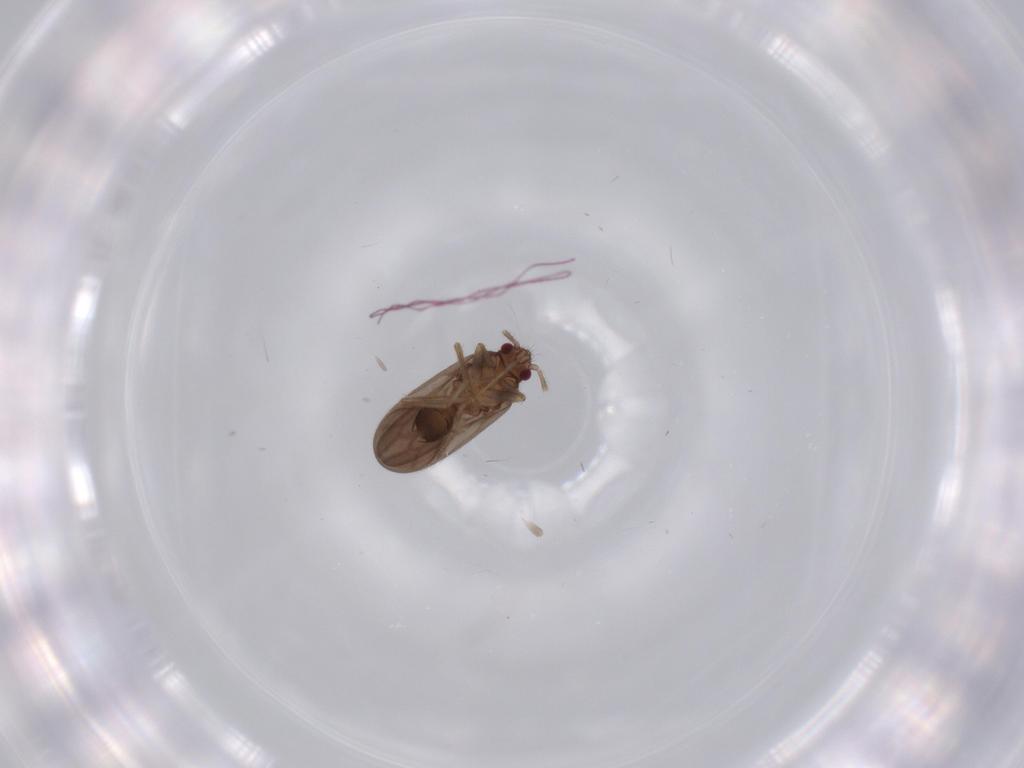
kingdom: Animalia
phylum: Arthropoda
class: Insecta
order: Hemiptera
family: Ceratocombidae
